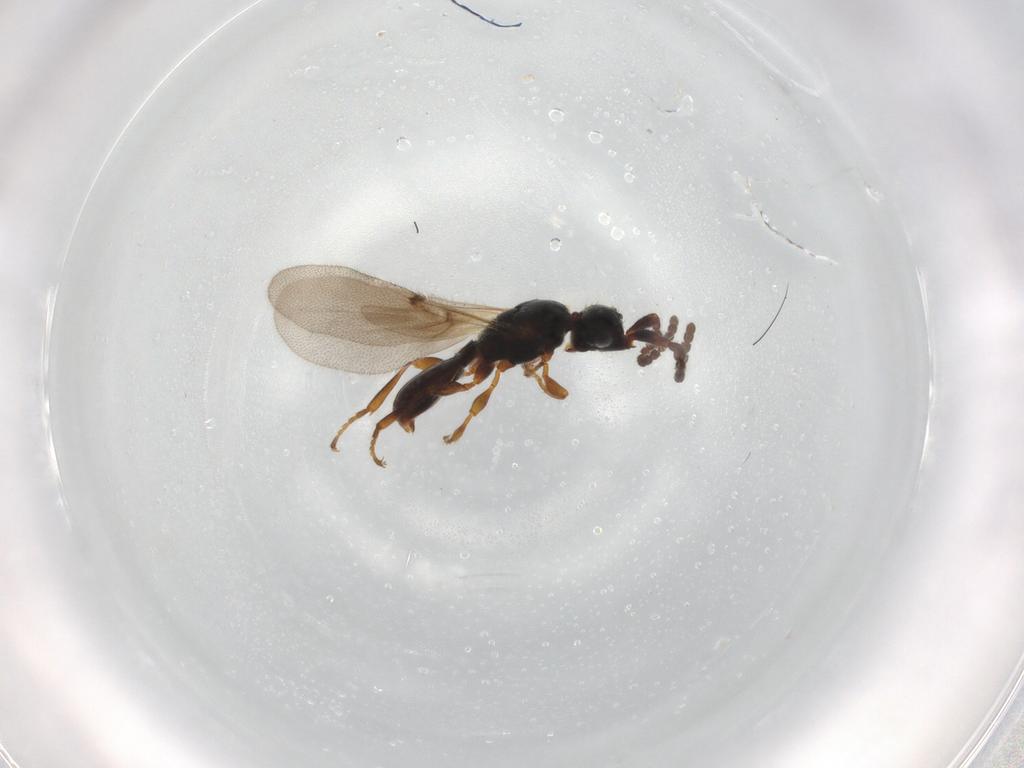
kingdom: Animalia
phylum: Arthropoda
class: Insecta
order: Hymenoptera
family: Diapriidae
